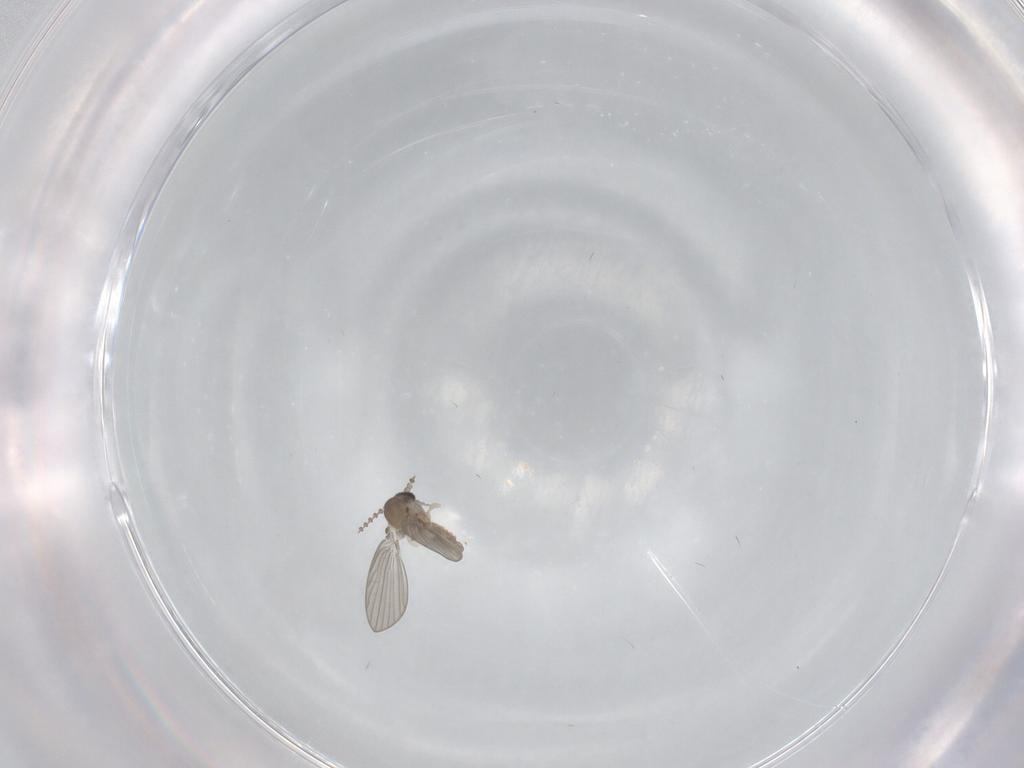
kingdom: Animalia
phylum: Arthropoda
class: Insecta
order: Diptera
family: Psychodidae
